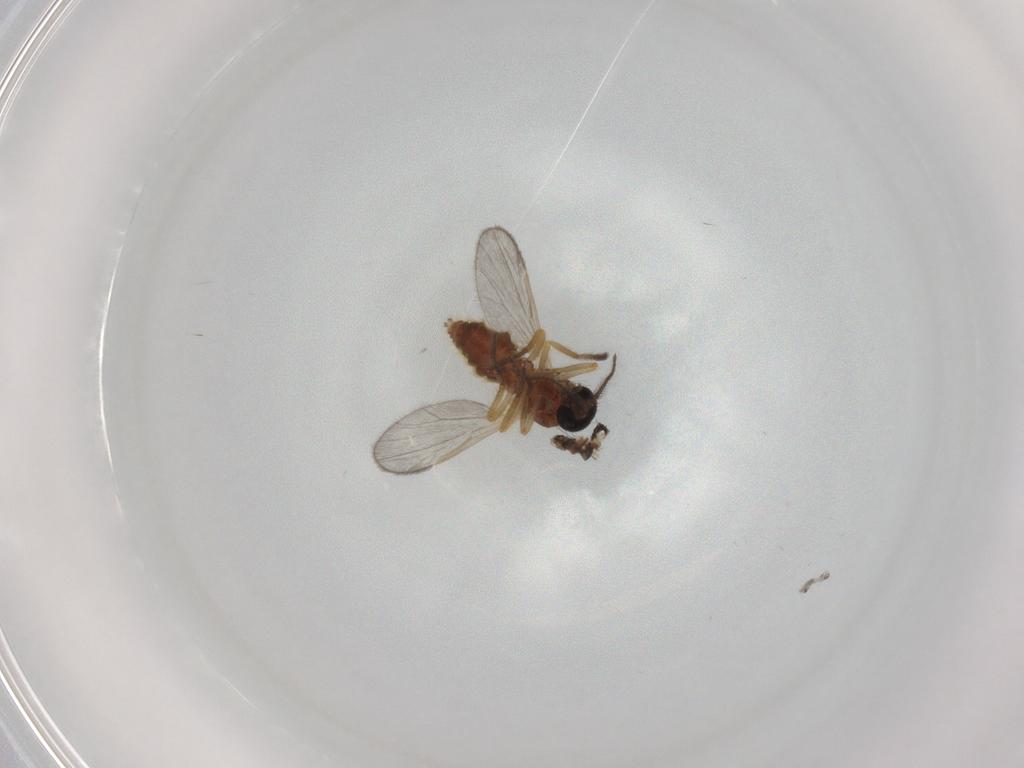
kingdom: Animalia
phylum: Arthropoda
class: Insecta
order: Diptera
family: Ceratopogonidae
